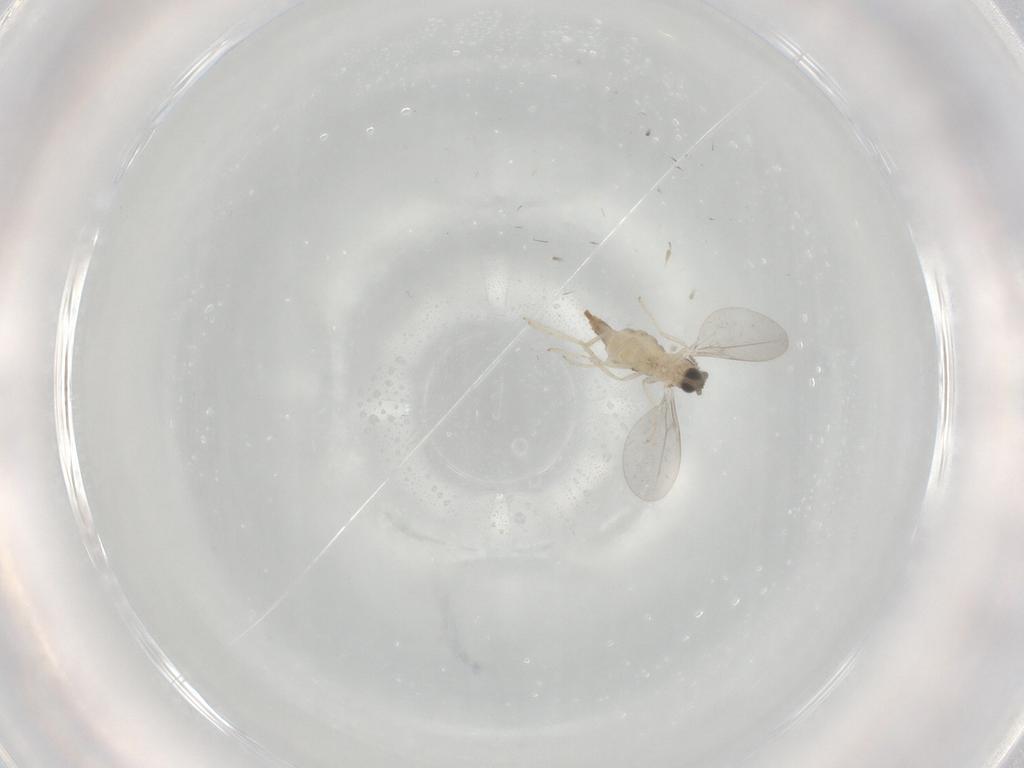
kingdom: Animalia
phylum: Arthropoda
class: Insecta
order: Diptera
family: Cecidomyiidae
